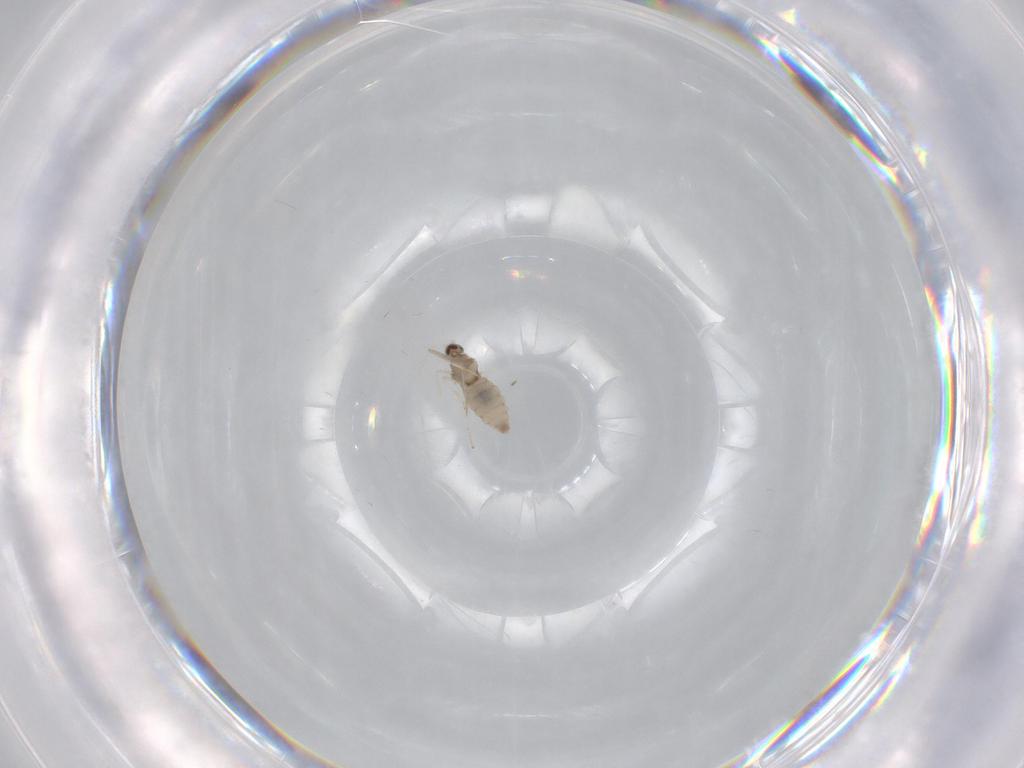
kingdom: Animalia
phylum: Arthropoda
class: Insecta
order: Diptera
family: Cecidomyiidae
